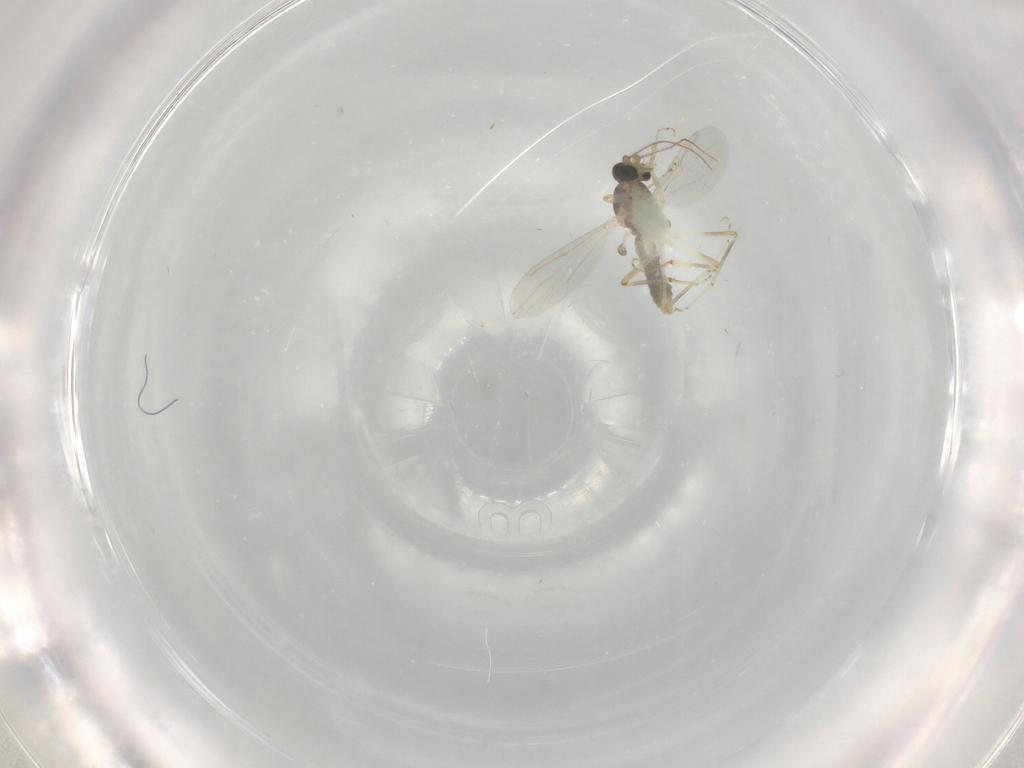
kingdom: Animalia
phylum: Arthropoda
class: Insecta
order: Diptera
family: Ceratopogonidae
